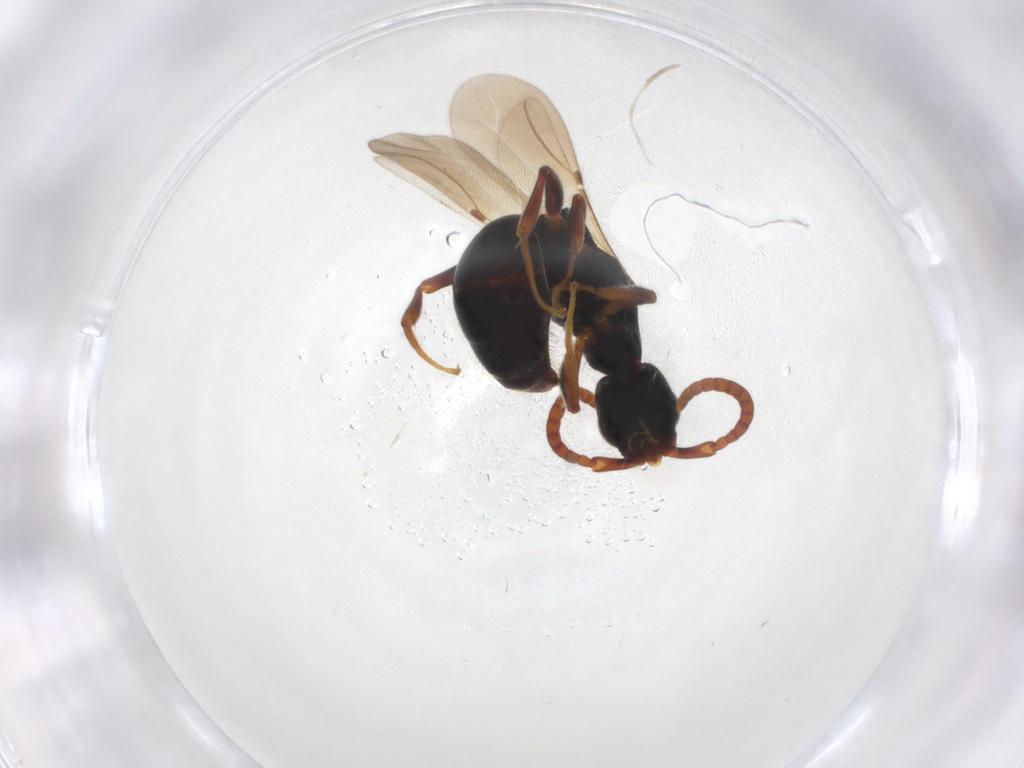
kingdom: Animalia
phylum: Arthropoda
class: Insecta
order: Hymenoptera
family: Bethylidae
